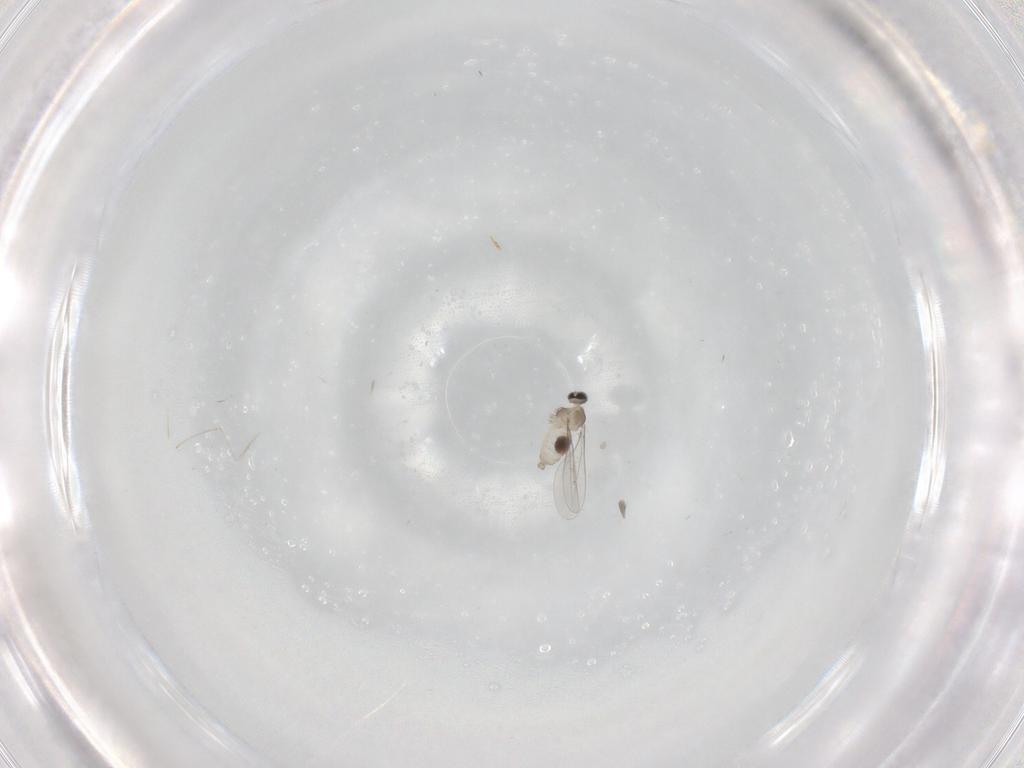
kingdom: Animalia
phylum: Arthropoda
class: Insecta
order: Diptera
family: Cecidomyiidae
